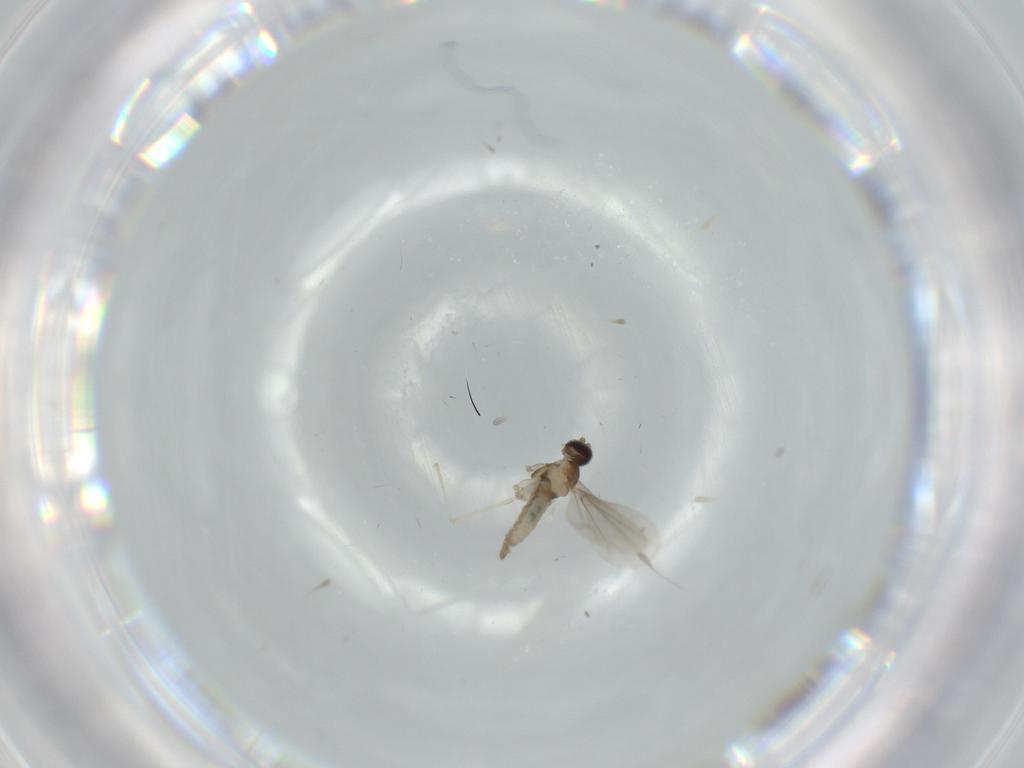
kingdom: Animalia
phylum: Arthropoda
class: Insecta
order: Diptera
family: Cecidomyiidae
